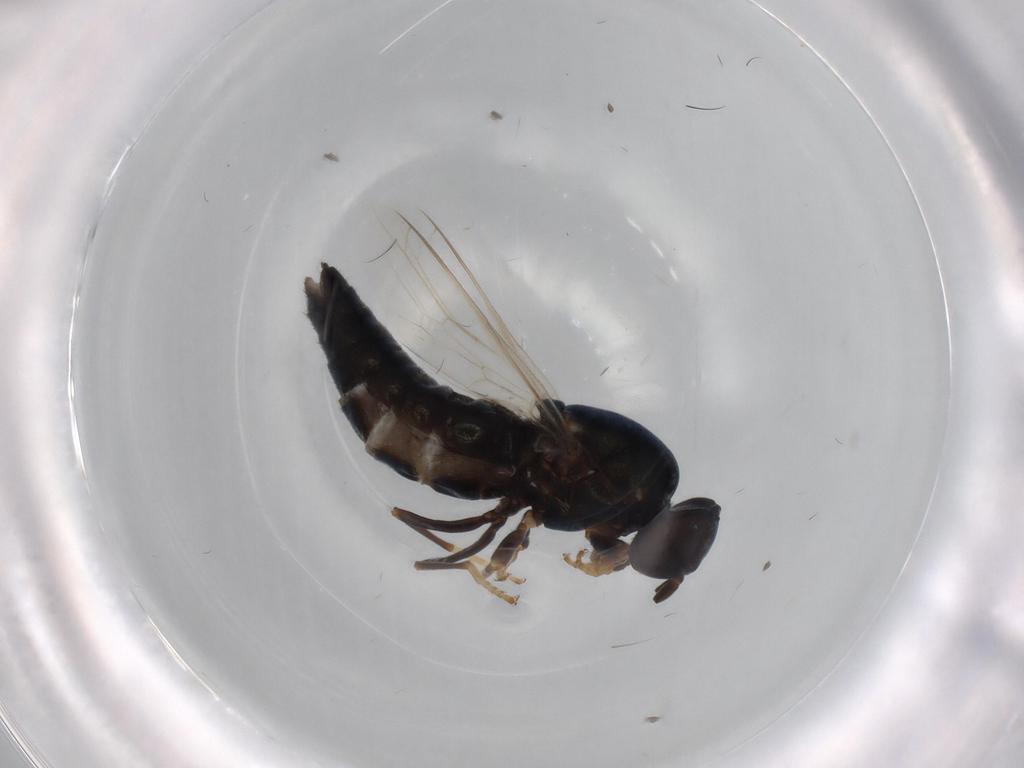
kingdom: Animalia
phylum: Arthropoda
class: Insecta
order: Diptera
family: Scenopinidae
